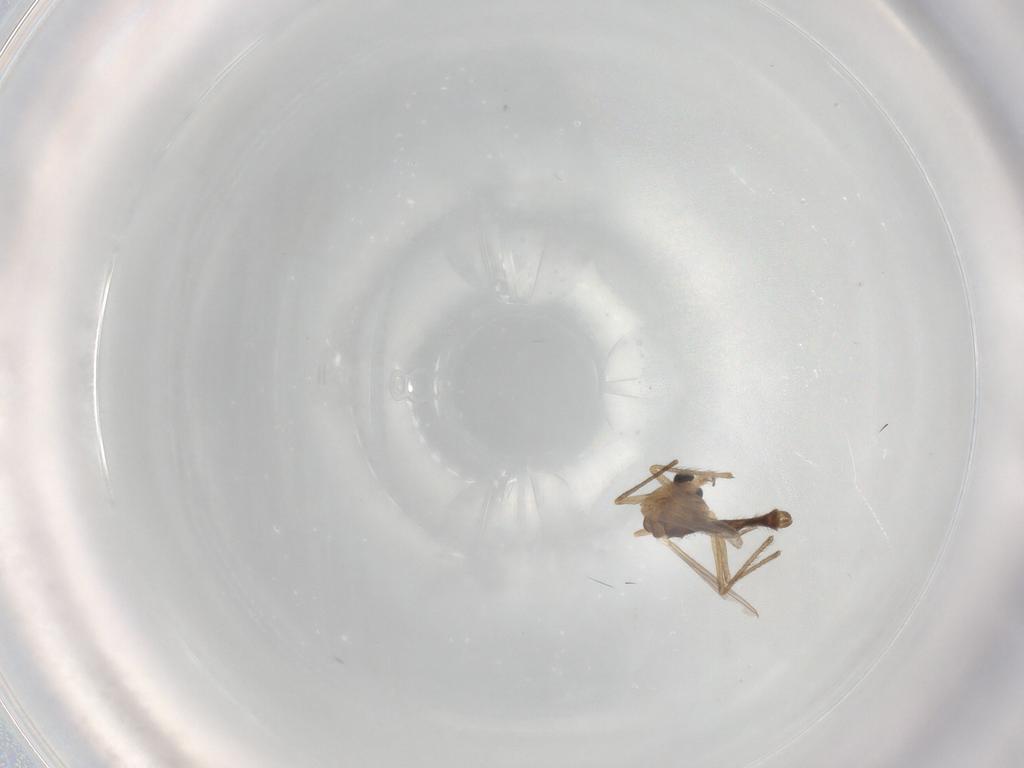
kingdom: Animalia
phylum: Arthropoda
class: Insecta
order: Diptera
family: Chironomidae
